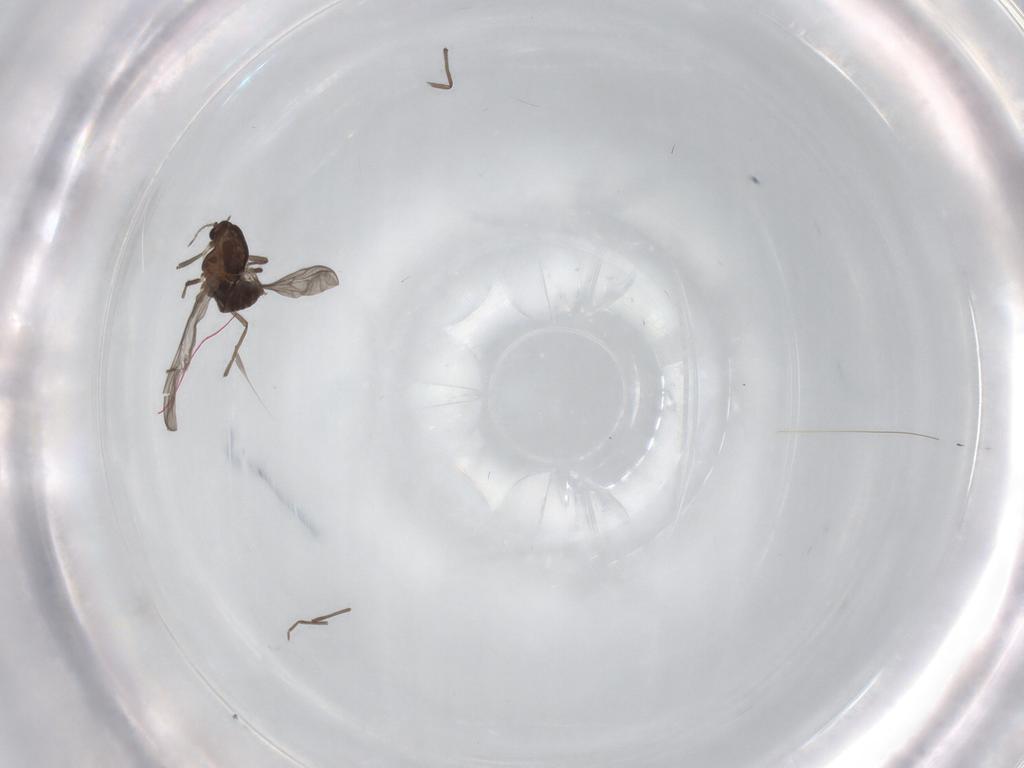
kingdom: Animalia
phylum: Arthropoda
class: Insecta
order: Diptera
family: Chironomidae
